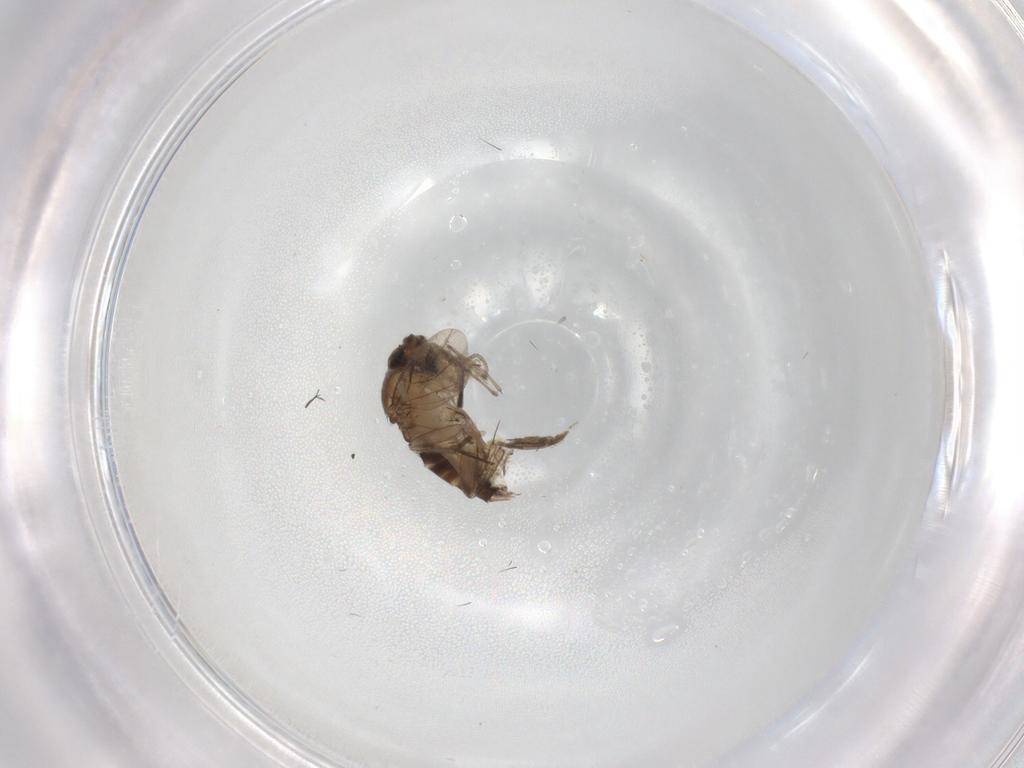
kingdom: Animalia
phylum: Arthropoda
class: Insecta
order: Diptera
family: Phoridae
